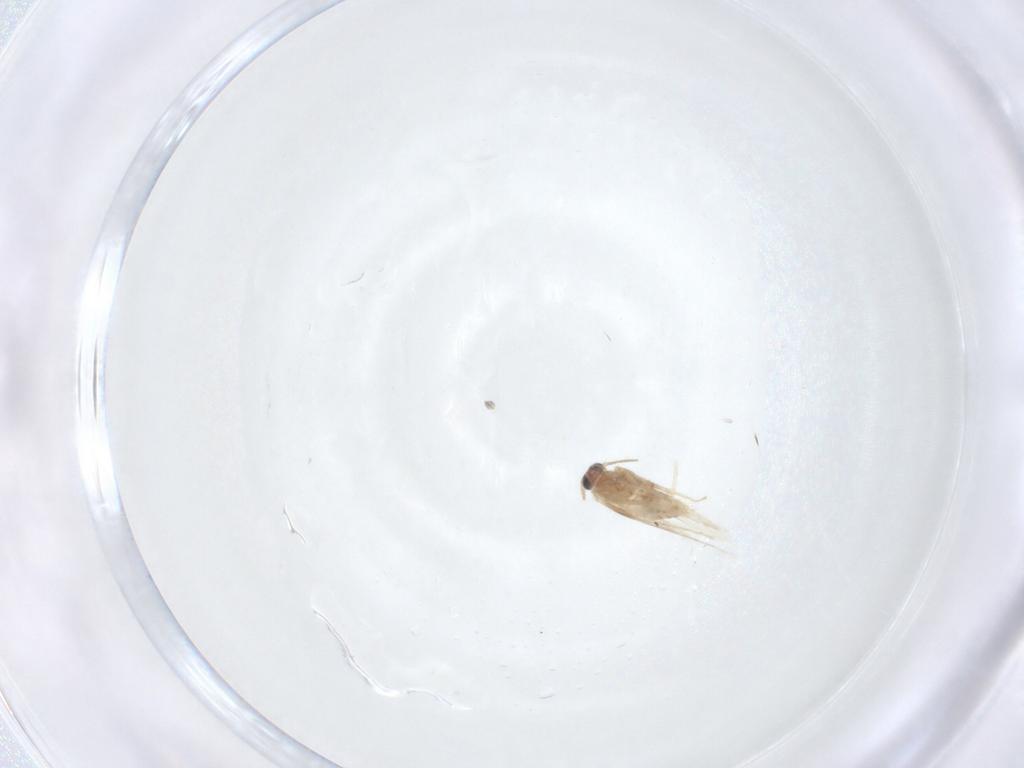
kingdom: Animalia
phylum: Arthropoda
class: Insecta
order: Lepidoptera
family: Nepticulidae
